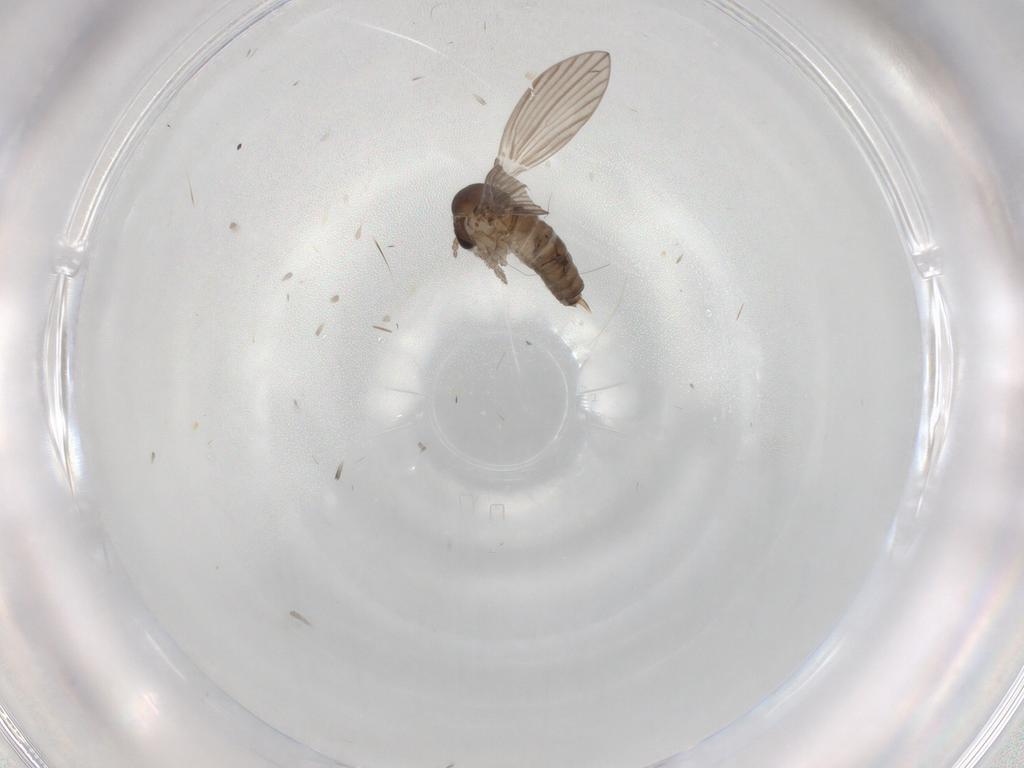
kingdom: Animalia
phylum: Arthropoda
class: Insecta
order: Diptera
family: Psychodidae
